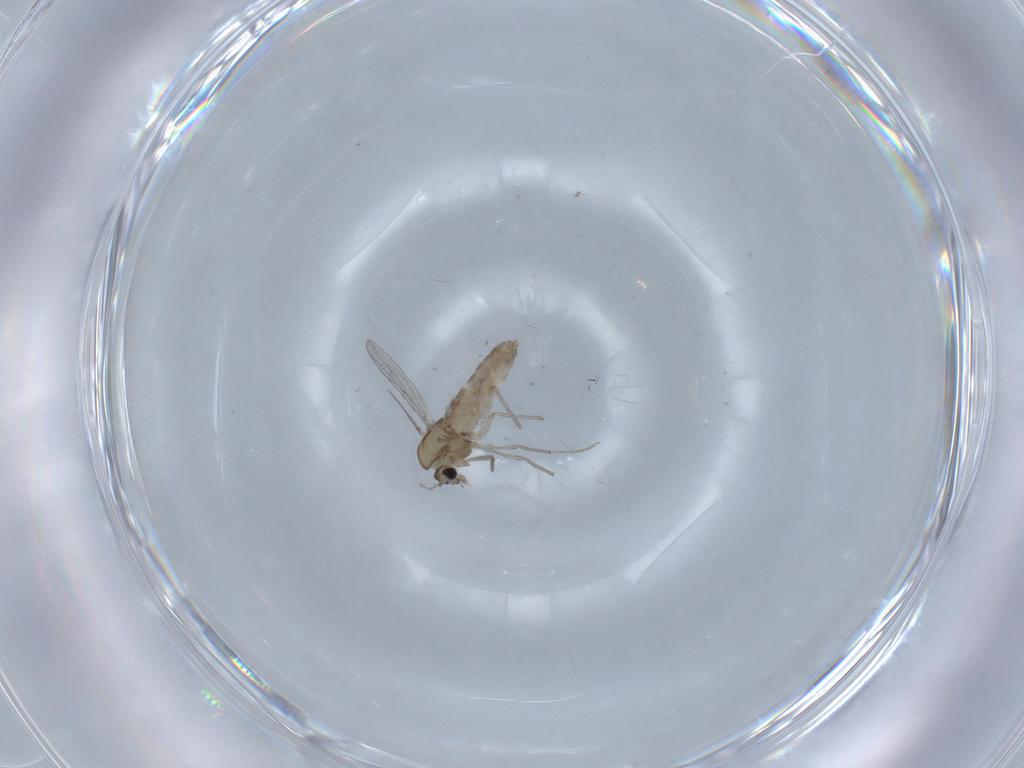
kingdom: Animalia
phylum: Arthropoda
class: Insecta
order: Diptera
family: Chironomidae
